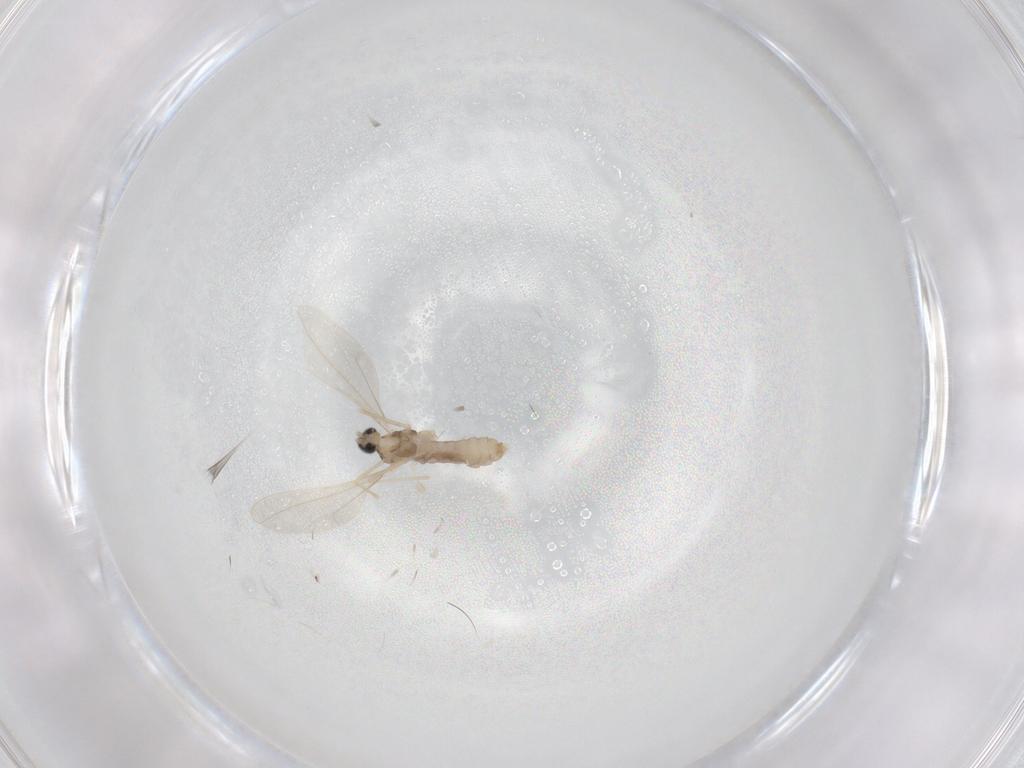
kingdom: Animalia
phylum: Arthropoda
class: Insecta
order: Diptera
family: Cecidomyiidae
